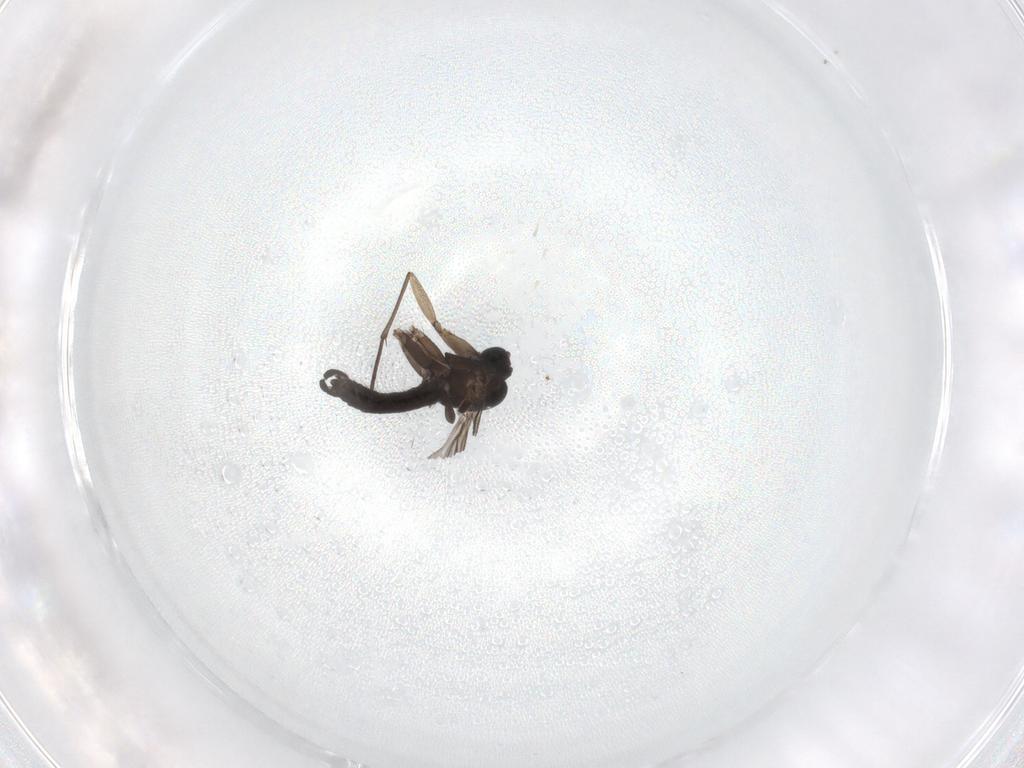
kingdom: Animalia
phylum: Arthropoda
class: Insecta
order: Diptera
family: Sciaridae
